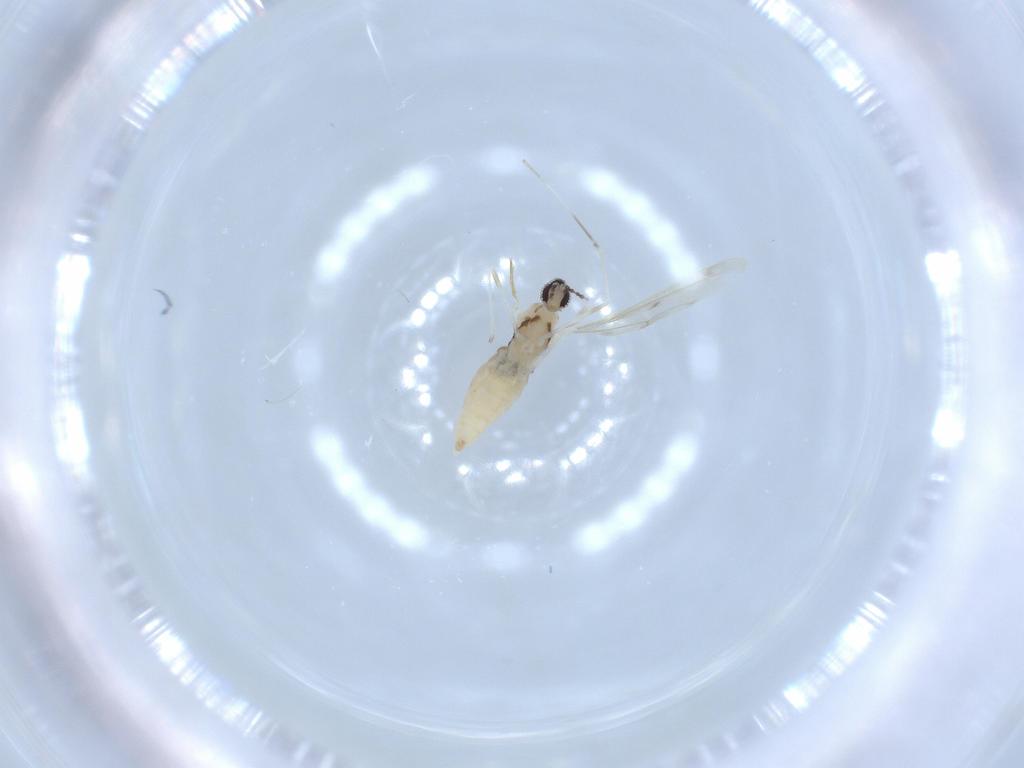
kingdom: Animalia
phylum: Arthropoda
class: Insecta
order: Diptera
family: Cecidomyiidae
